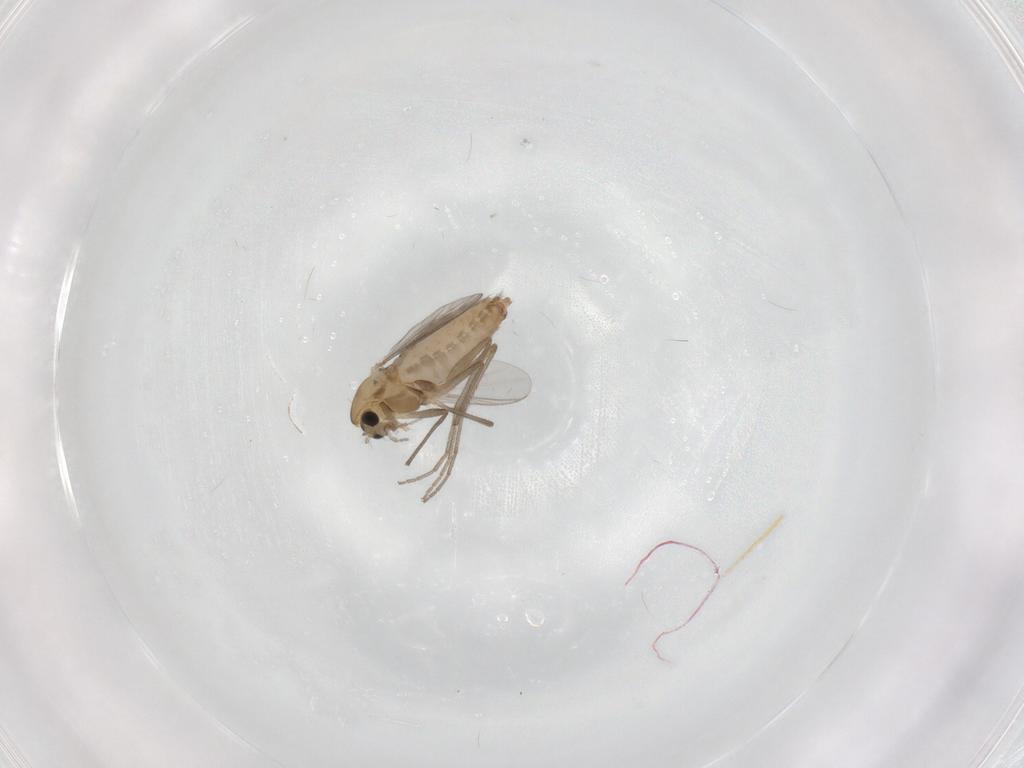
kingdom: Animalia
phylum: Arthropoda
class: Insecta
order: Diptera
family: Chironomidae
